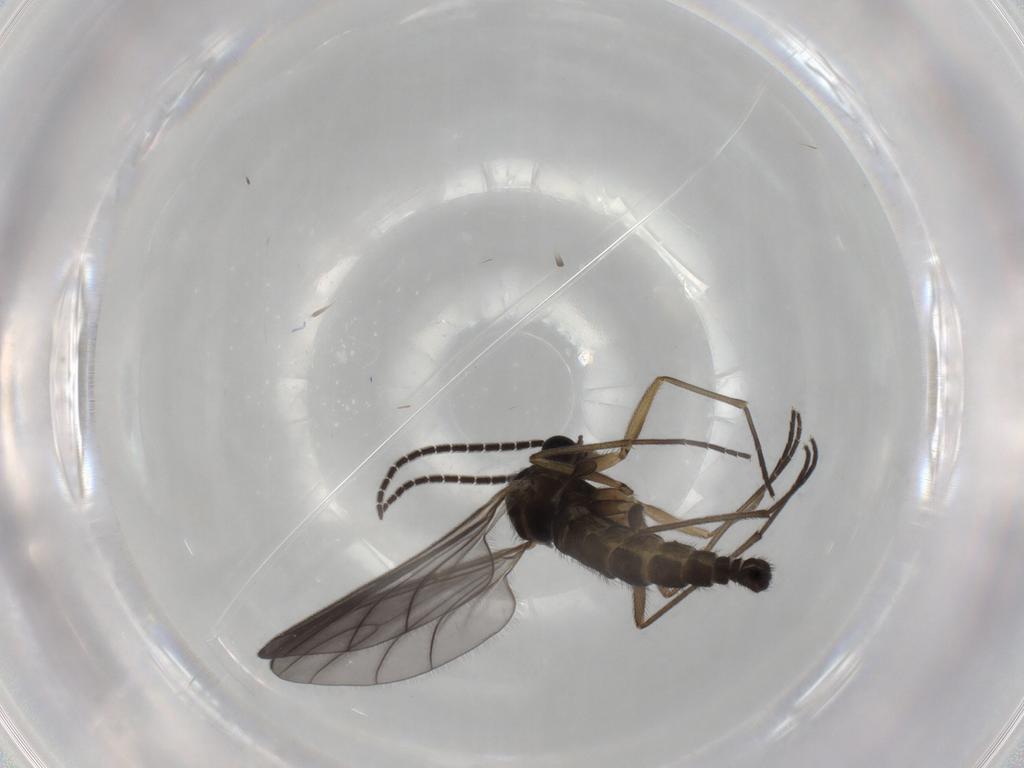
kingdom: Animalia
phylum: Arthropoda
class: Insecta
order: Diptera
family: Sciaridae
